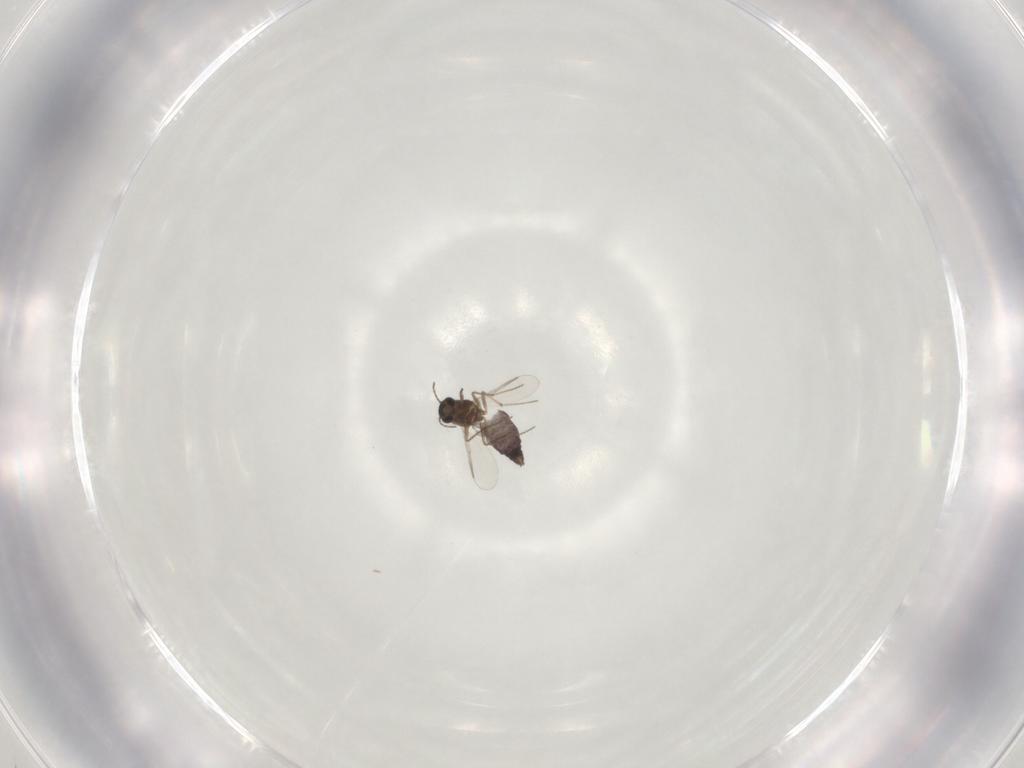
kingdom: Animalia
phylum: Arthropoda
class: Insecta
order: Diptera
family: Chironomidae
